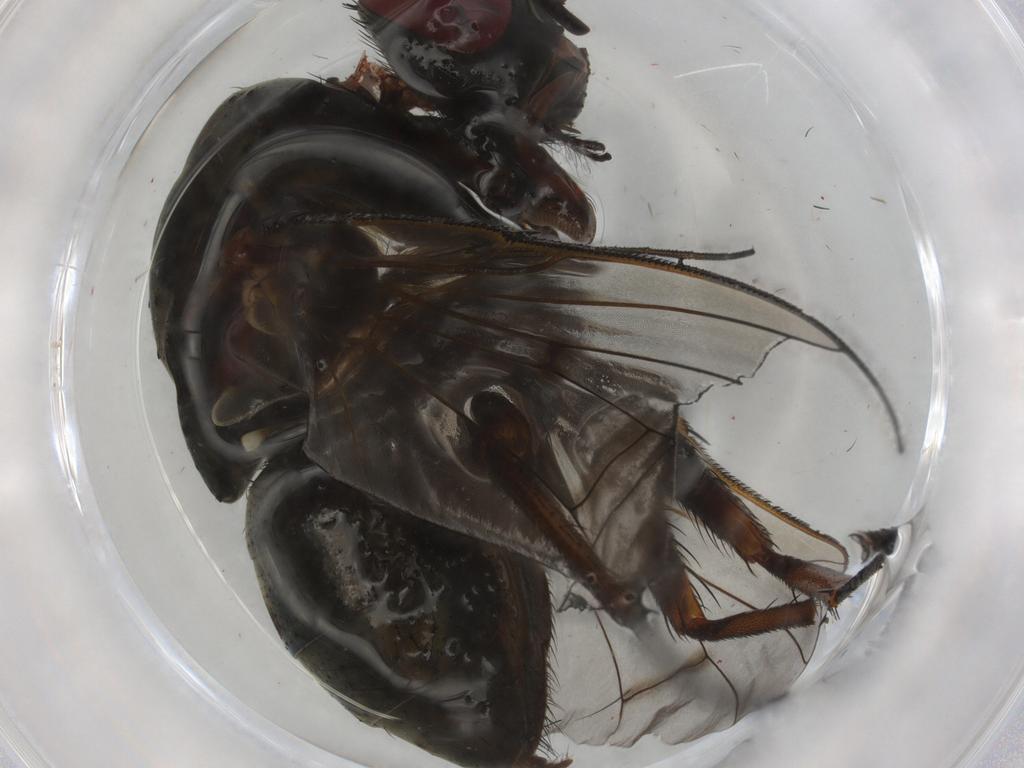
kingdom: Animalia
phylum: Arthropoda
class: Insecta
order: Diptera
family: Muscidae
